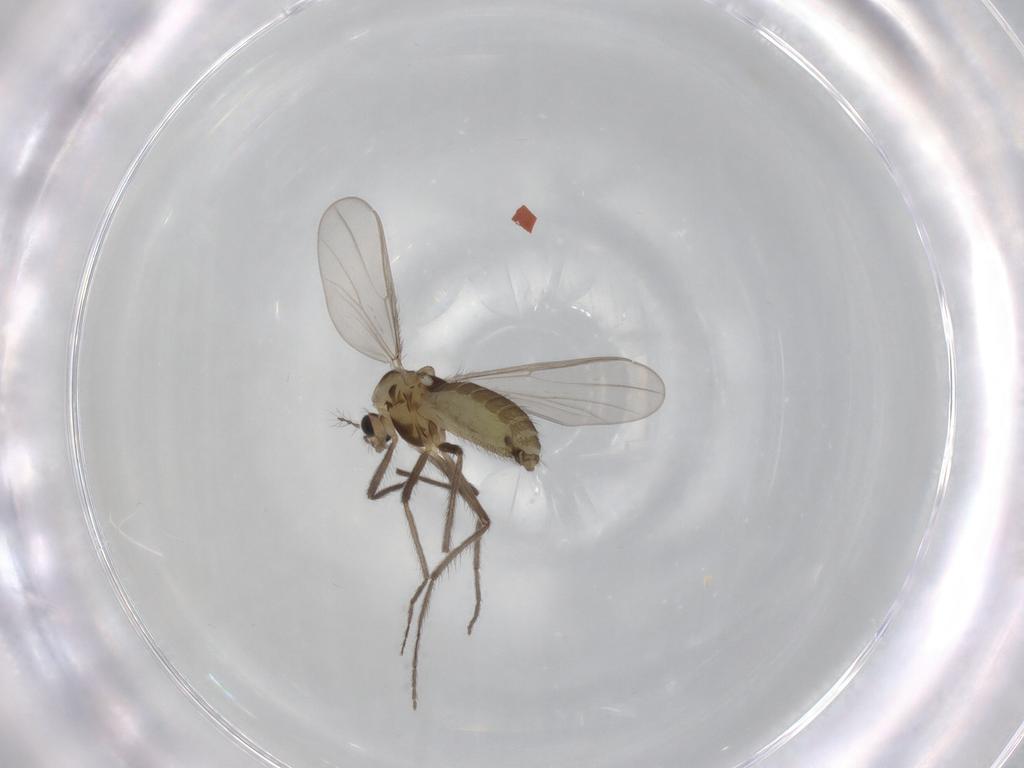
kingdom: Animalia
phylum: Arthropoda
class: Insecta
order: Diptera
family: Chironomidae
